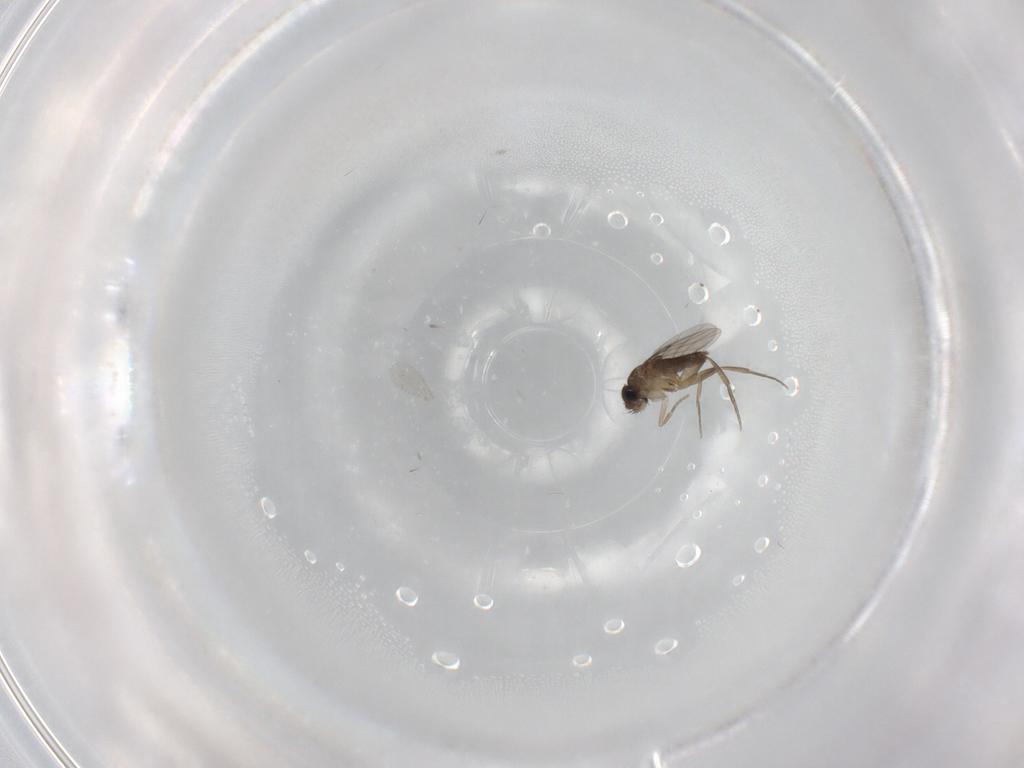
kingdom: Animalia
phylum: Arthropoda
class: Insecta
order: Diptera
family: Phoridae
